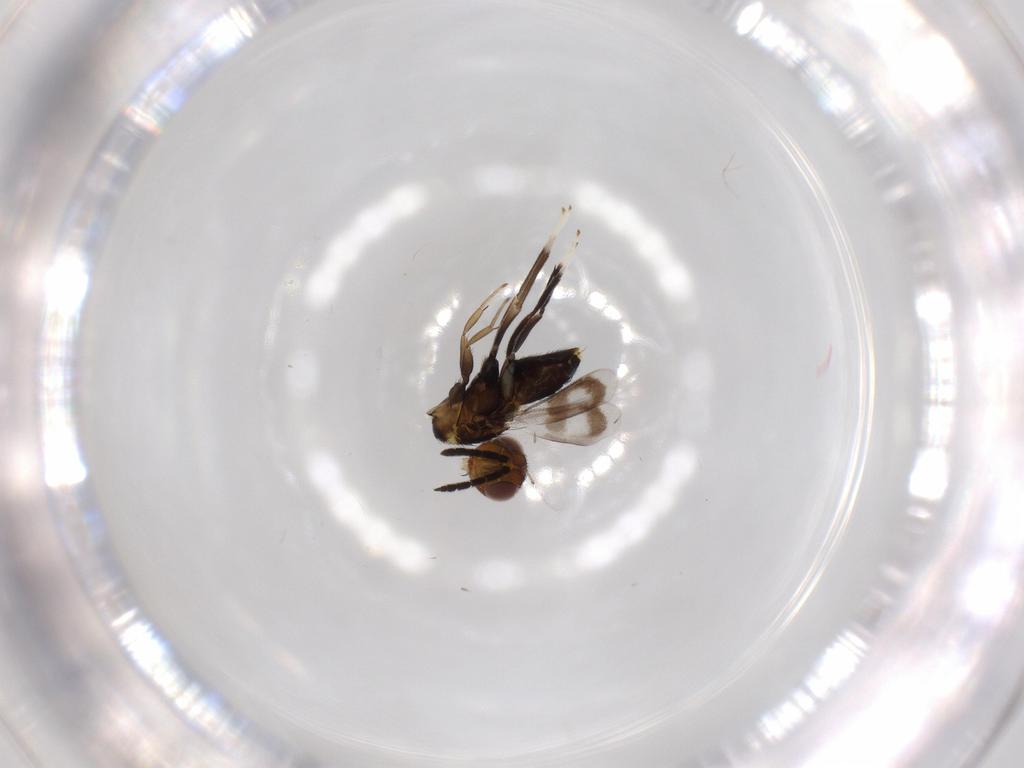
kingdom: Animalia
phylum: Arthropoda
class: Insecta
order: Hymenoptera
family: Aphelinidae
